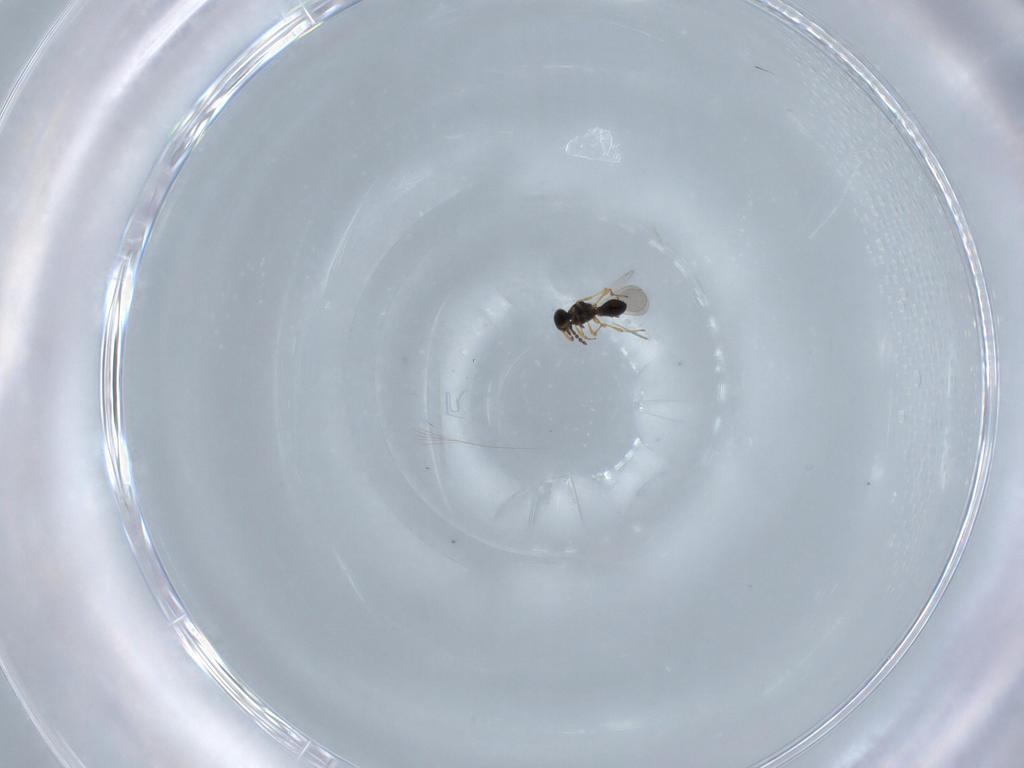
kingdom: Animalia
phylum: Arthropoda
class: Insecta
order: Hymenoptera
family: Platygastridae
